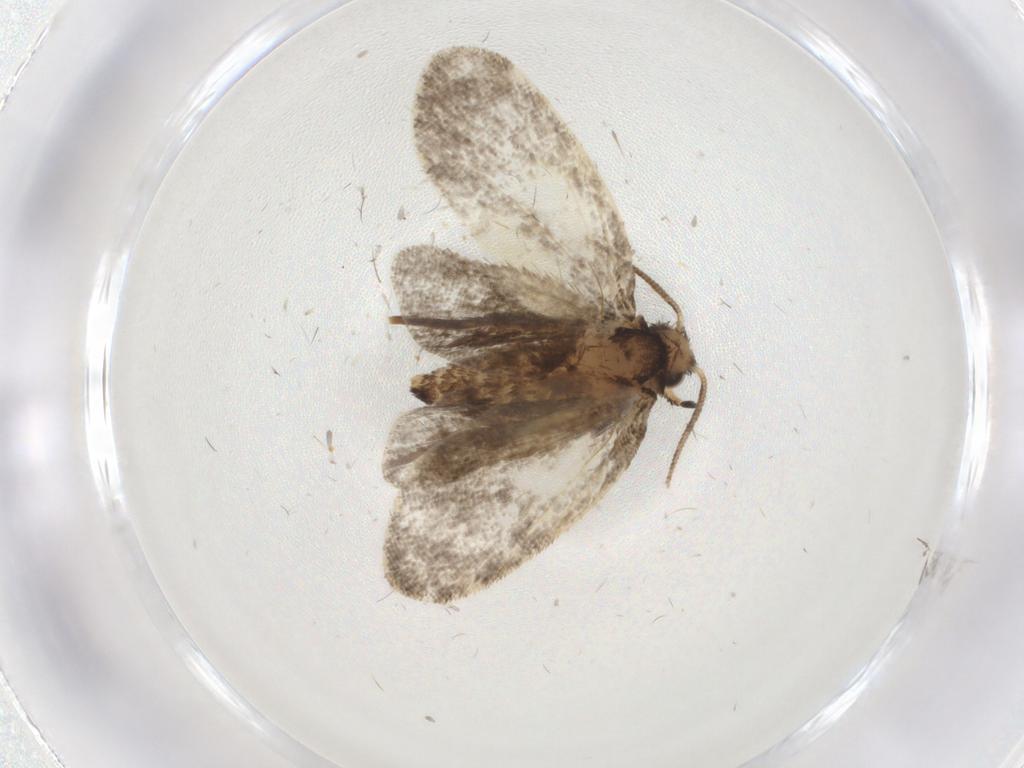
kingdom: Animalia
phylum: Arthropoda
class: Insecta
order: Lepidoptera
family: Psychidae
